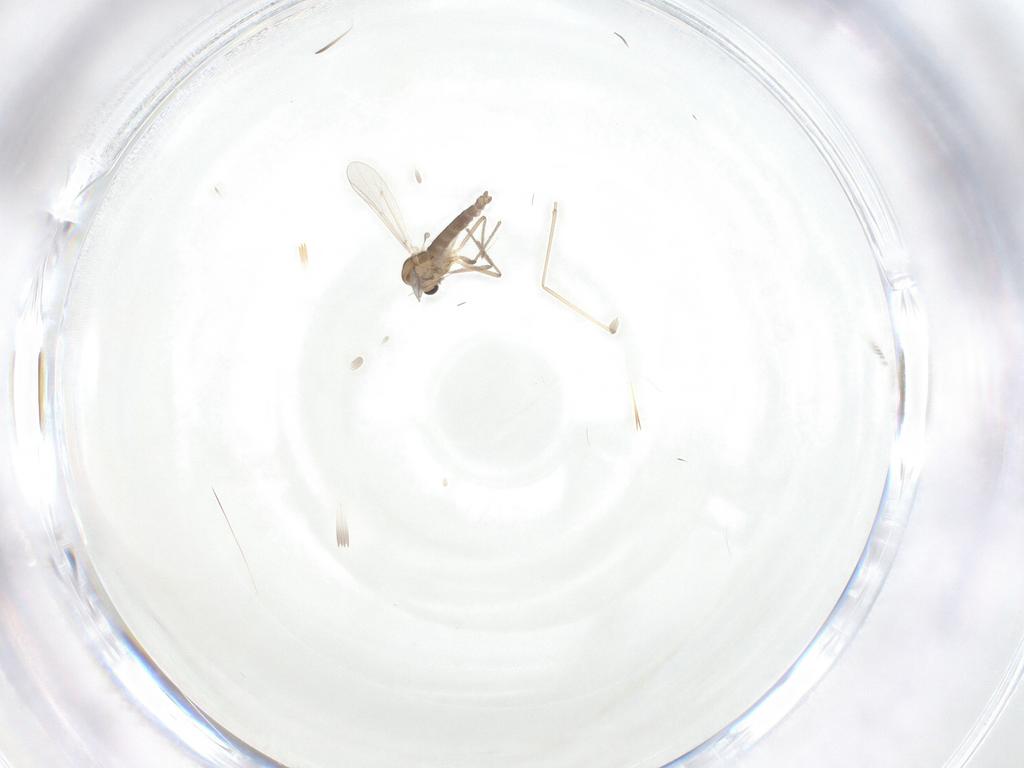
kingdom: Animalia
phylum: Arthropoda
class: Insecta
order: Diptera
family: Cecidomyiidae
